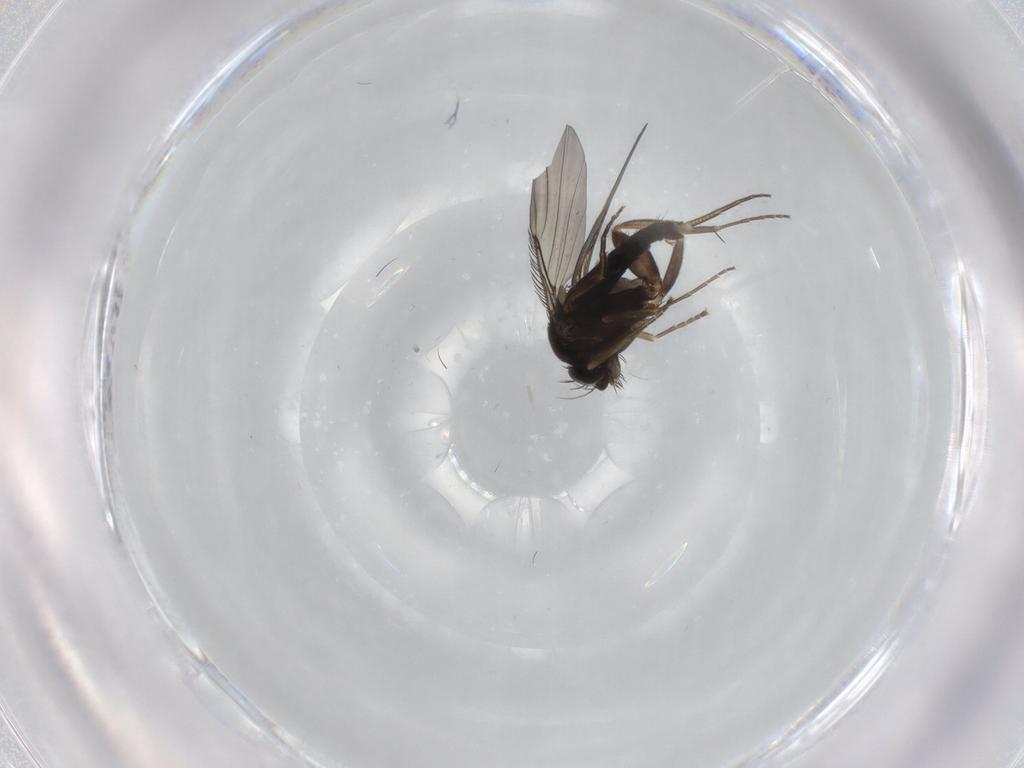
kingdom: Animalia
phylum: Arthropoda
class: Insecta
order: Diptera
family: Phoridae
